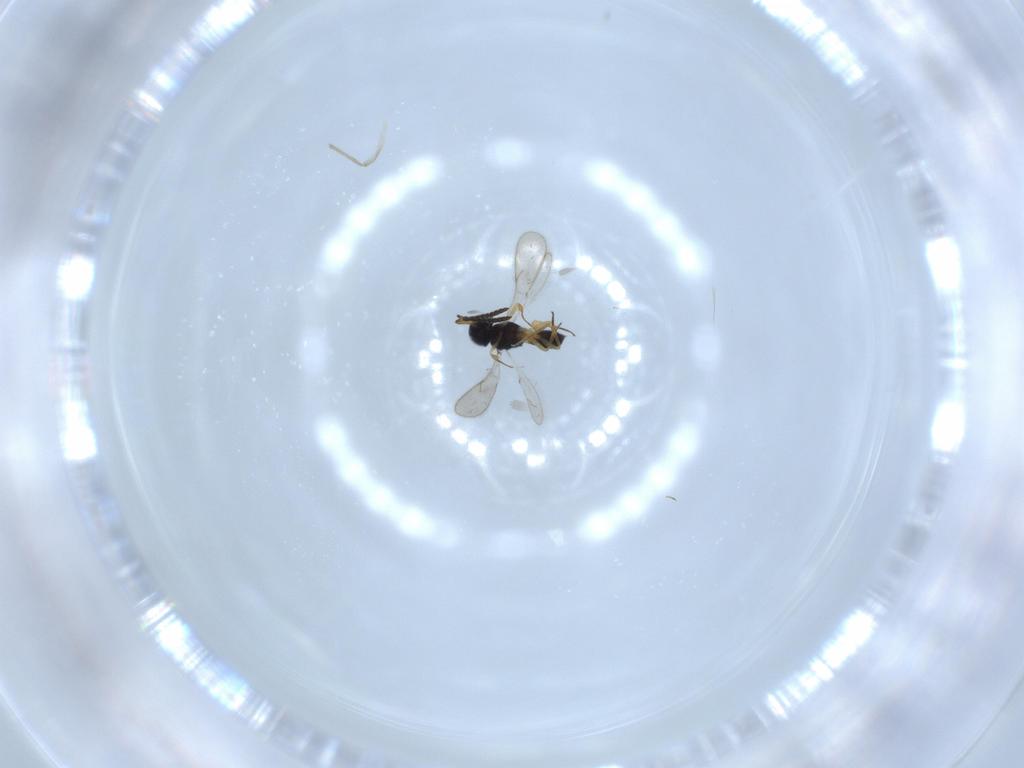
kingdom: Animalia
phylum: Arthropoda
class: Insecta
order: Hymenoptera
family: Scelionidae
